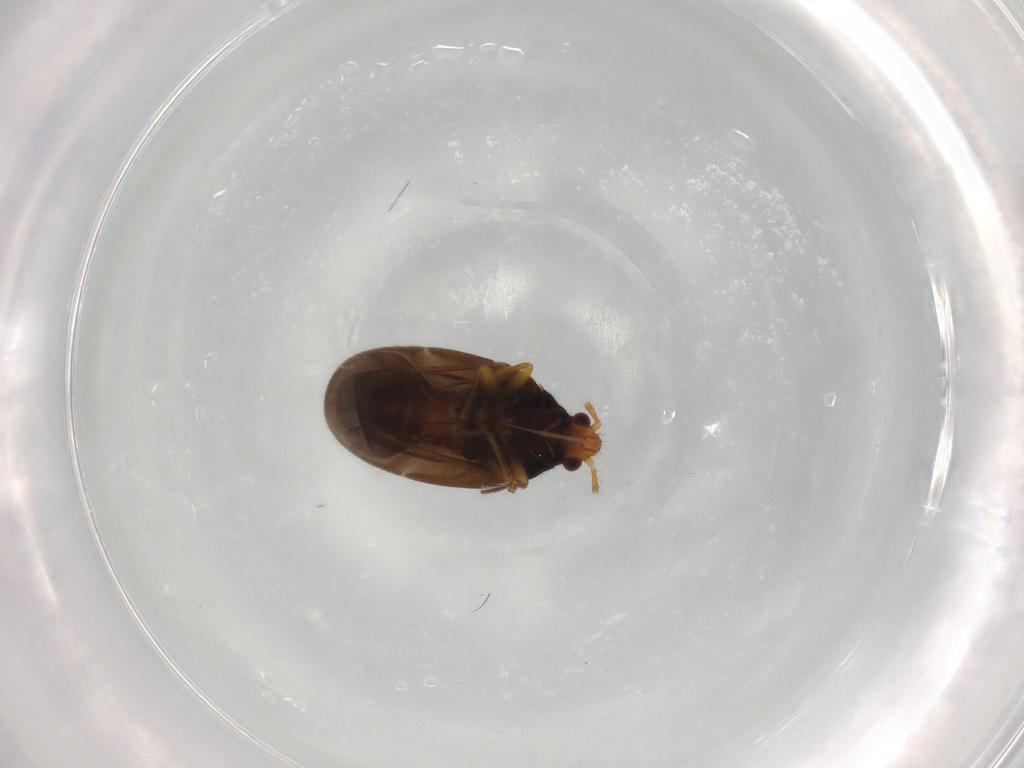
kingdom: Animalia
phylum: Arthropoda
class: Insecta
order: Hemiptera
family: Ceratocombidae
